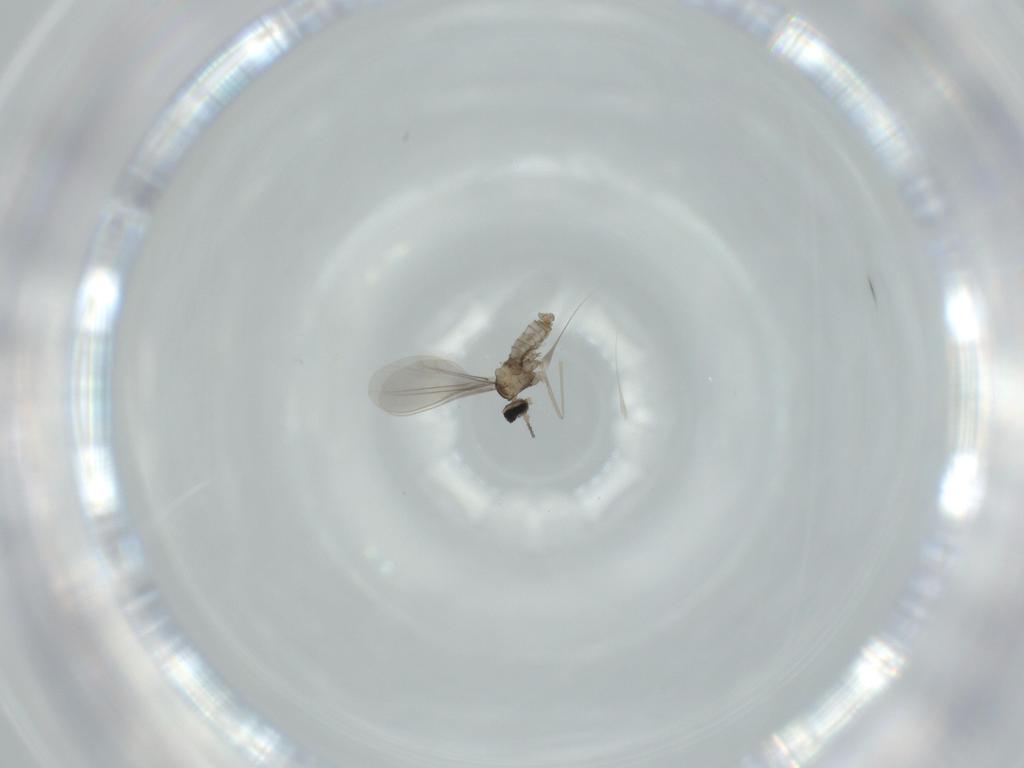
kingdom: Animalia
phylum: Arthropoda
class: Insecta
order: Diptera
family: Cecidomyiidae
